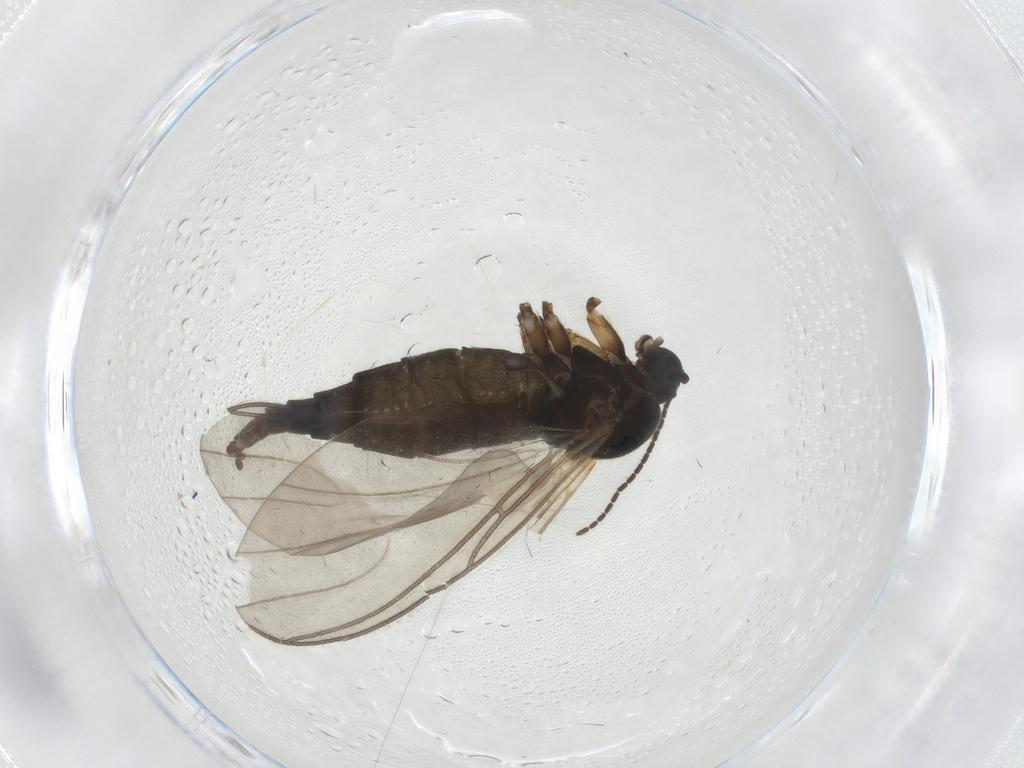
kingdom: Animalia
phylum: Arthropoda
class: Insecta
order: Diptera
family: Sciaridae
